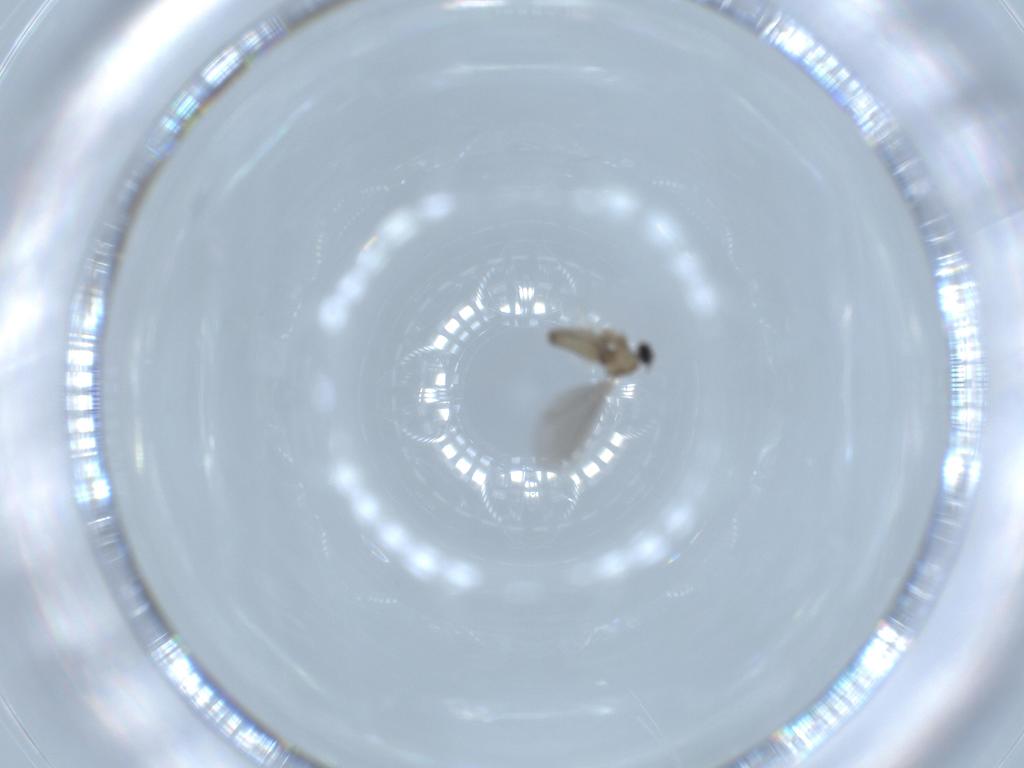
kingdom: Animalia
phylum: Arthropoda
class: Insecta
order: Diptera
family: Cecidomyiidae
